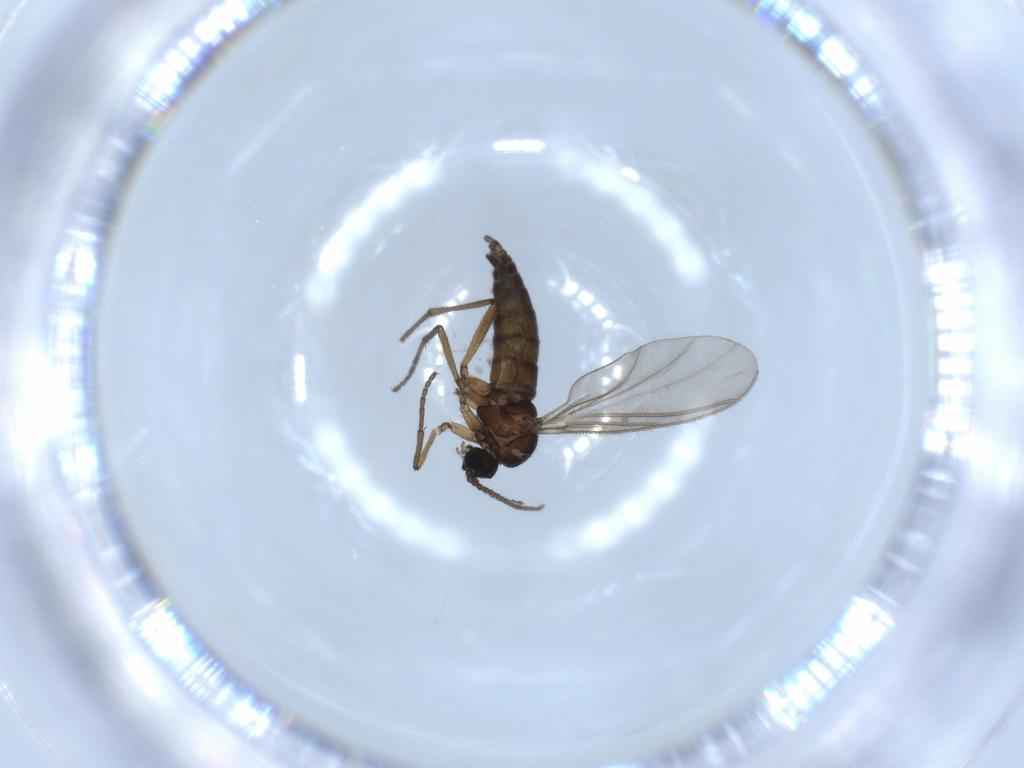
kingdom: Animalia
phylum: Arthropoda
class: Insecta
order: Diptera
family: Sciaridae
